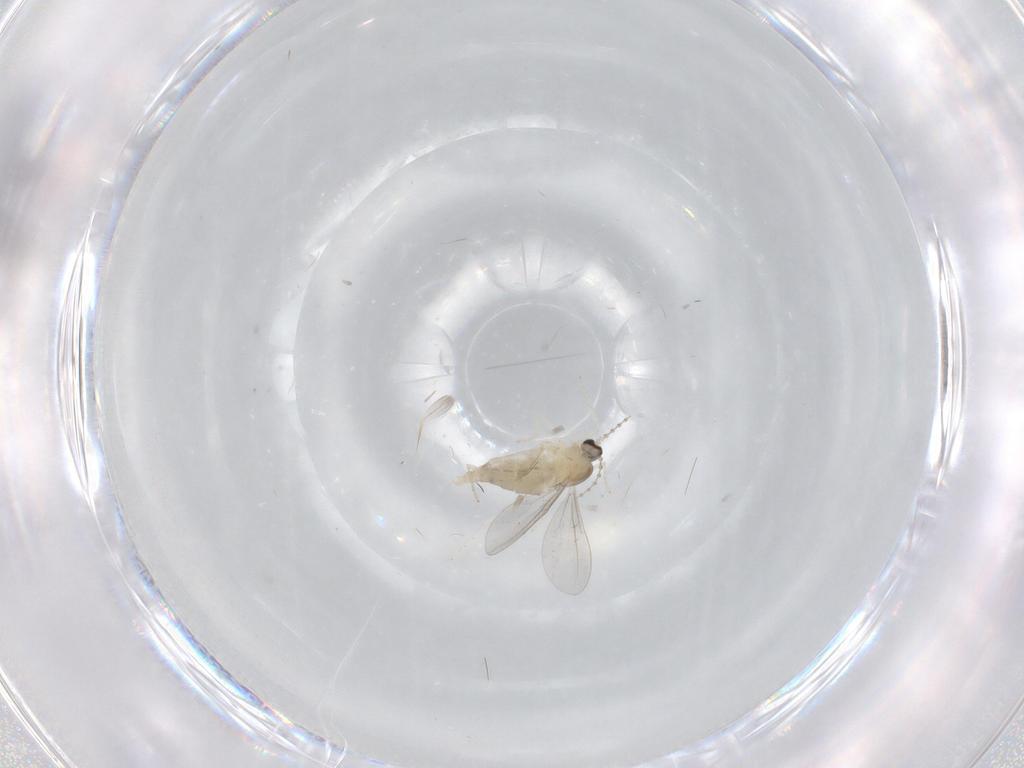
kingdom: Animalia
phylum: Arthropoda
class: Insecta
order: Diptera
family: Cecidomyiidae
